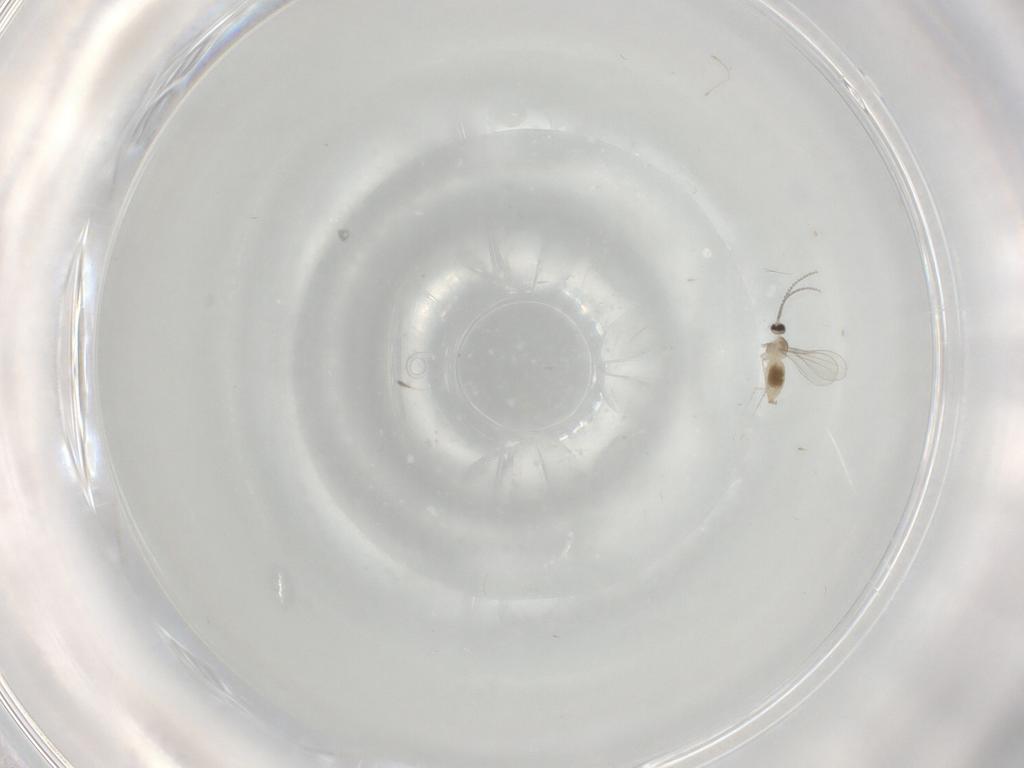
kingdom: Animalia
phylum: Arthropoda
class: Insecta
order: Diptera
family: Cecidomyiidae
